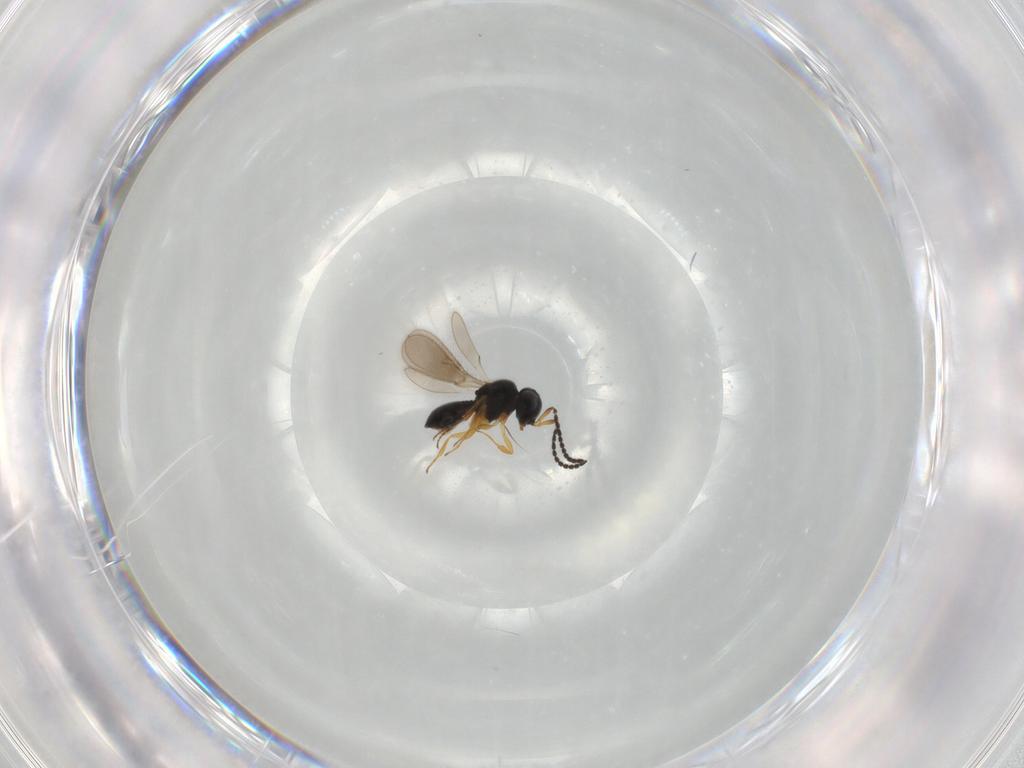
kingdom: Animalia
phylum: Arthropoda
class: Insecta
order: Hymenoptera
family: Scelionidae
